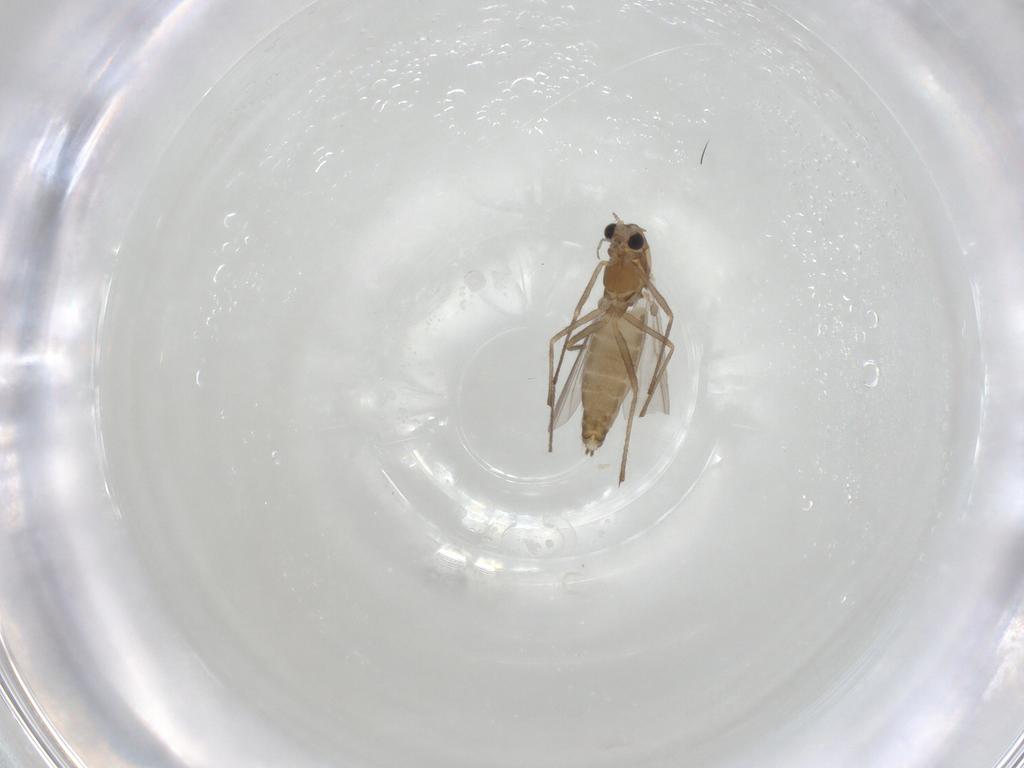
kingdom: Animalia
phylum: Arthropoda
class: Insecta
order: Diptera
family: Chironomidae
